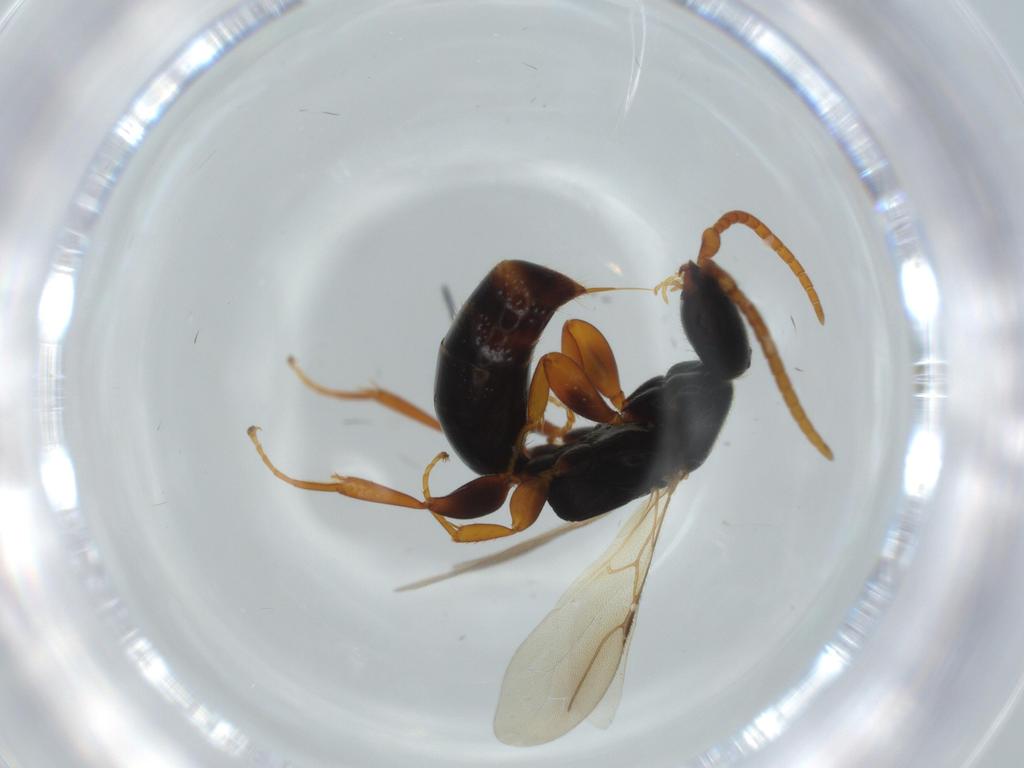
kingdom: Animalia
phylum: Arthropoda
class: Insecta
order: Hymenoptera
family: Bethylidae
